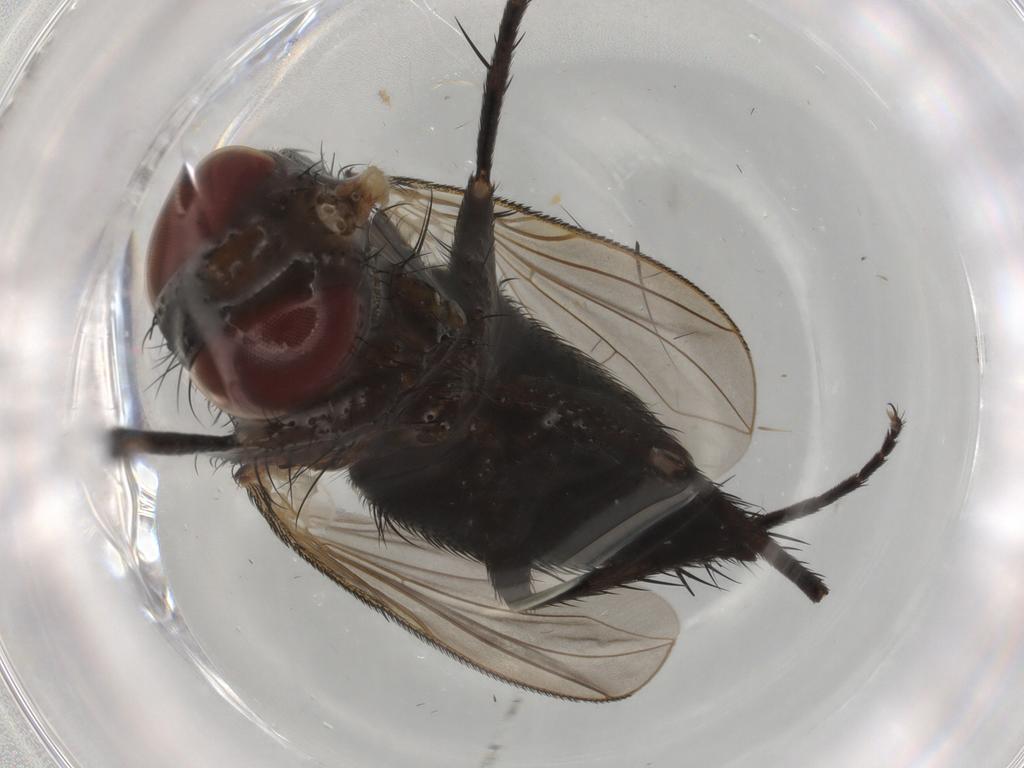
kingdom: Animalia
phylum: Arthropoda
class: Insecta
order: Diptera
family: Tachinidae
